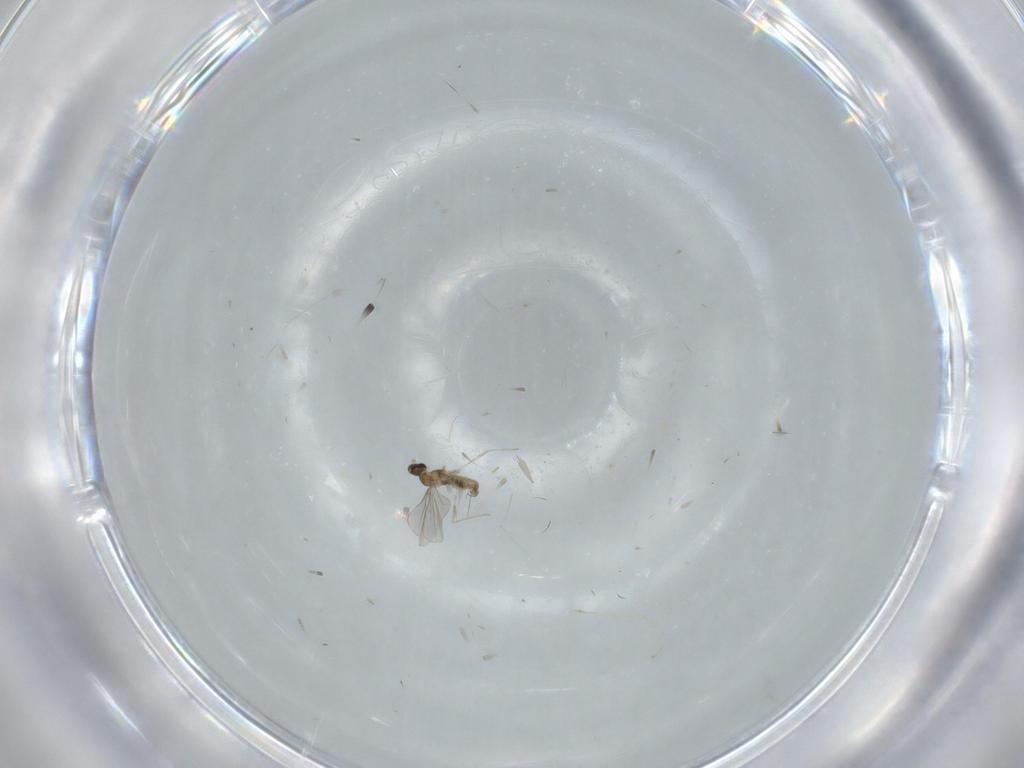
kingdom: Animalia
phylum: Arthropoda
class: Insecta
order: Diptera
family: Cecidomyiidae
